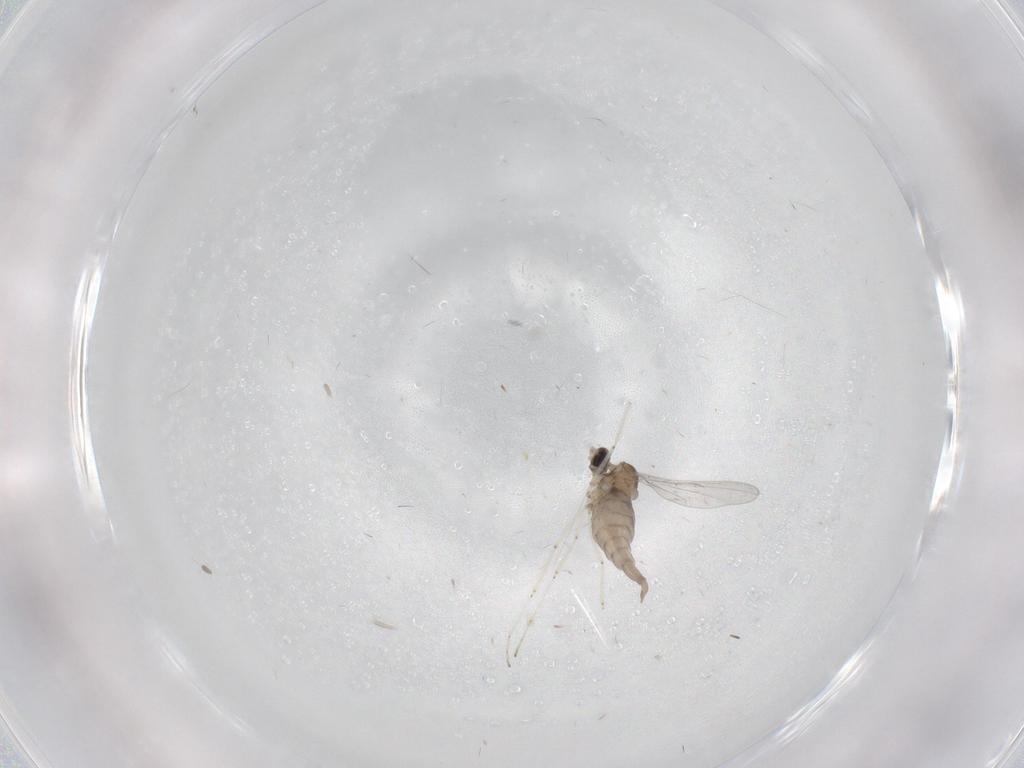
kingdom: Animalia
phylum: Arthropoda
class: Insecta
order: Diptera
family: Cecidomyiidae
